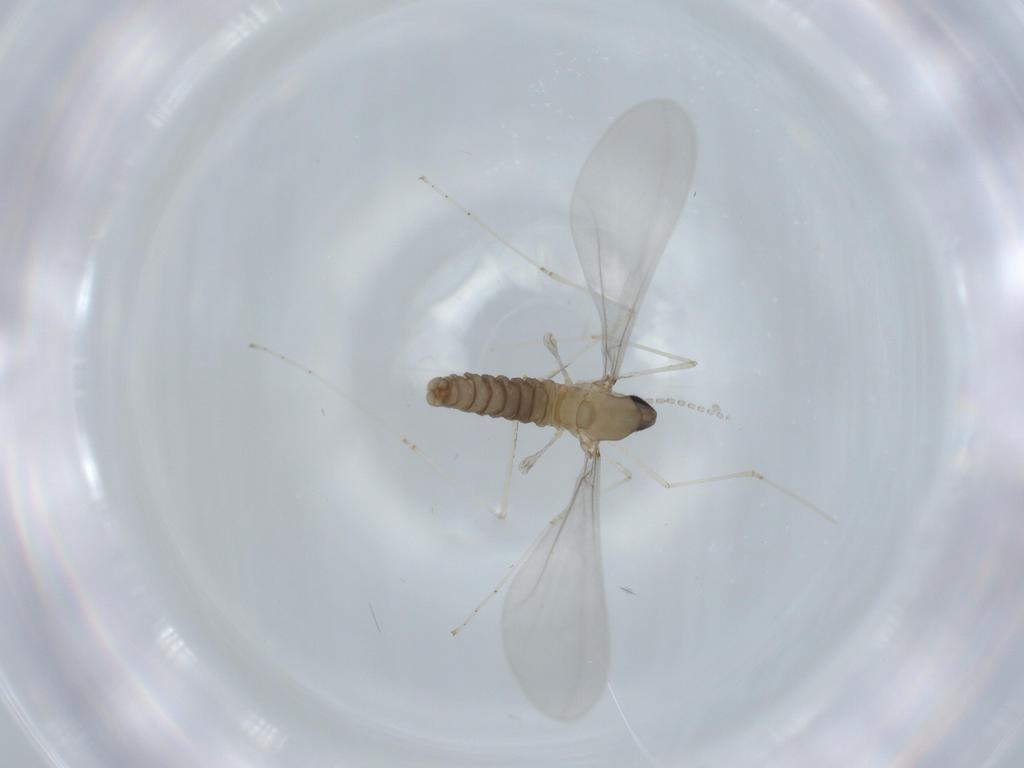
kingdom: Animalia
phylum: Arthropoda
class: Insecta
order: Diptera
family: Cecidomyiidae
